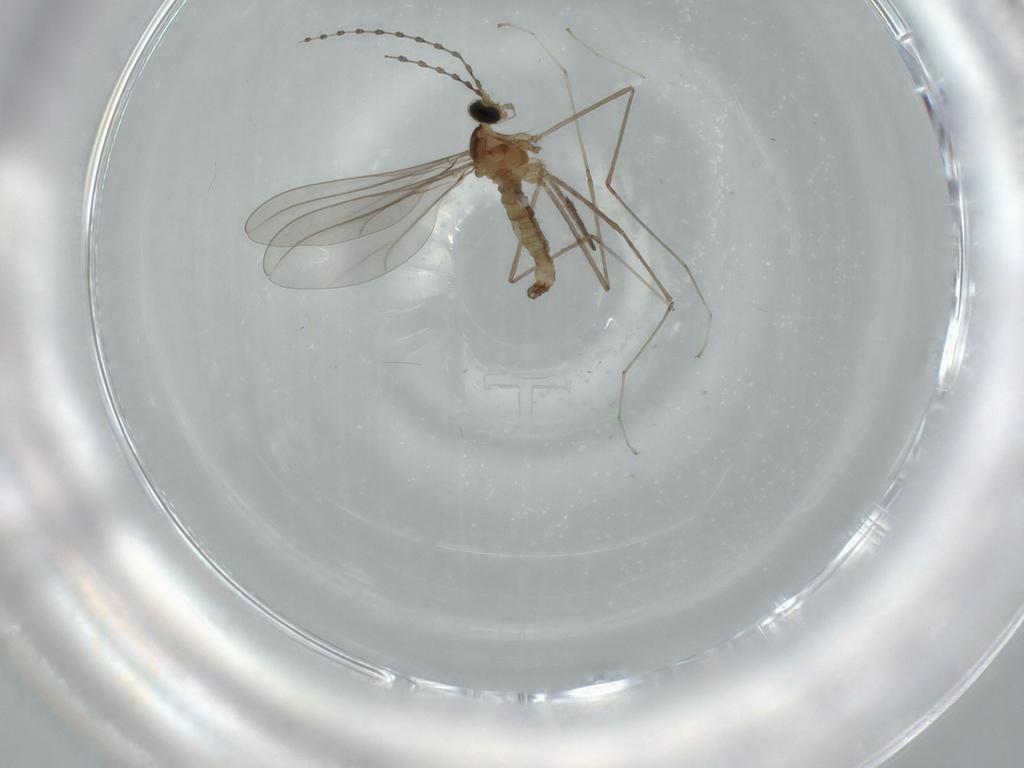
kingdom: Animalia
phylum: Arthropoda
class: Insecta
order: Diptera
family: Cecidomyiidae
